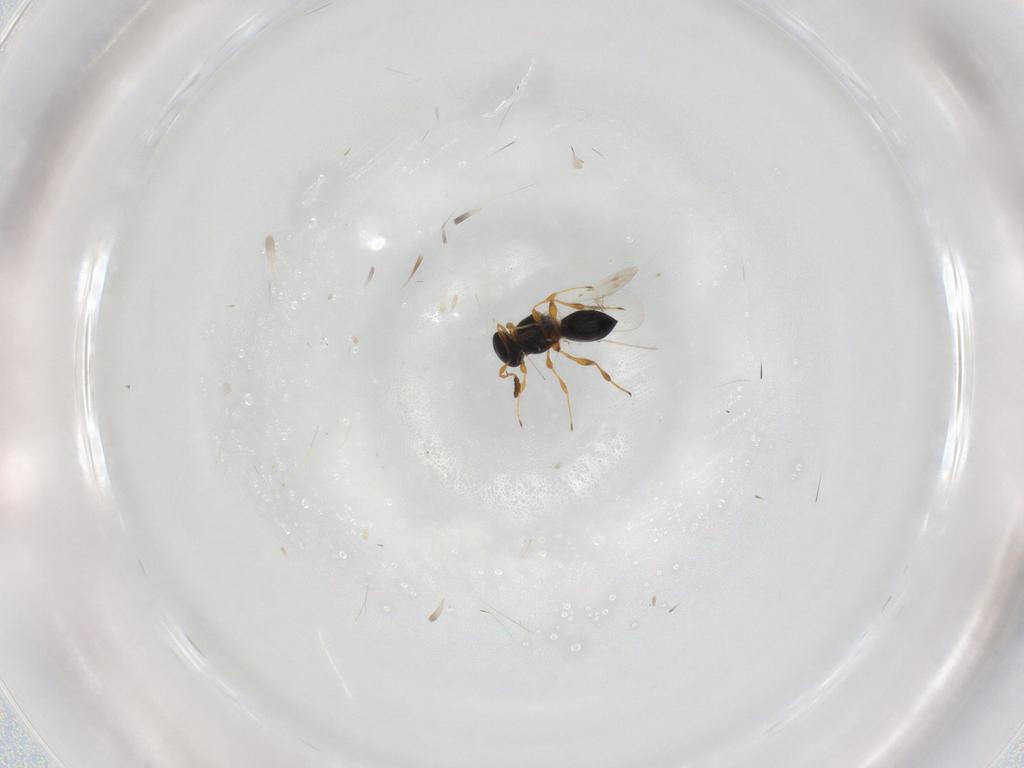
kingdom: Animalia
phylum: Arthropoda
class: Insecta
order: Hymenoptera
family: Platygastridae
